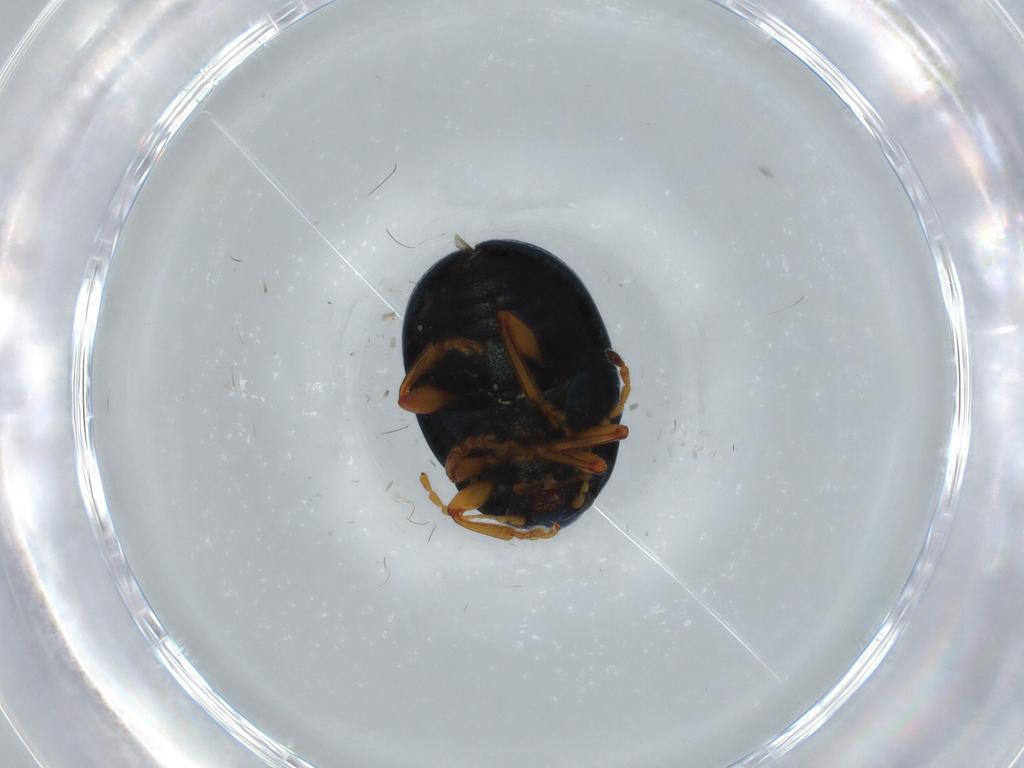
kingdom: Animalia
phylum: Arthropoda
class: Insecta
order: Coleoptera
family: Chrysomelidae
